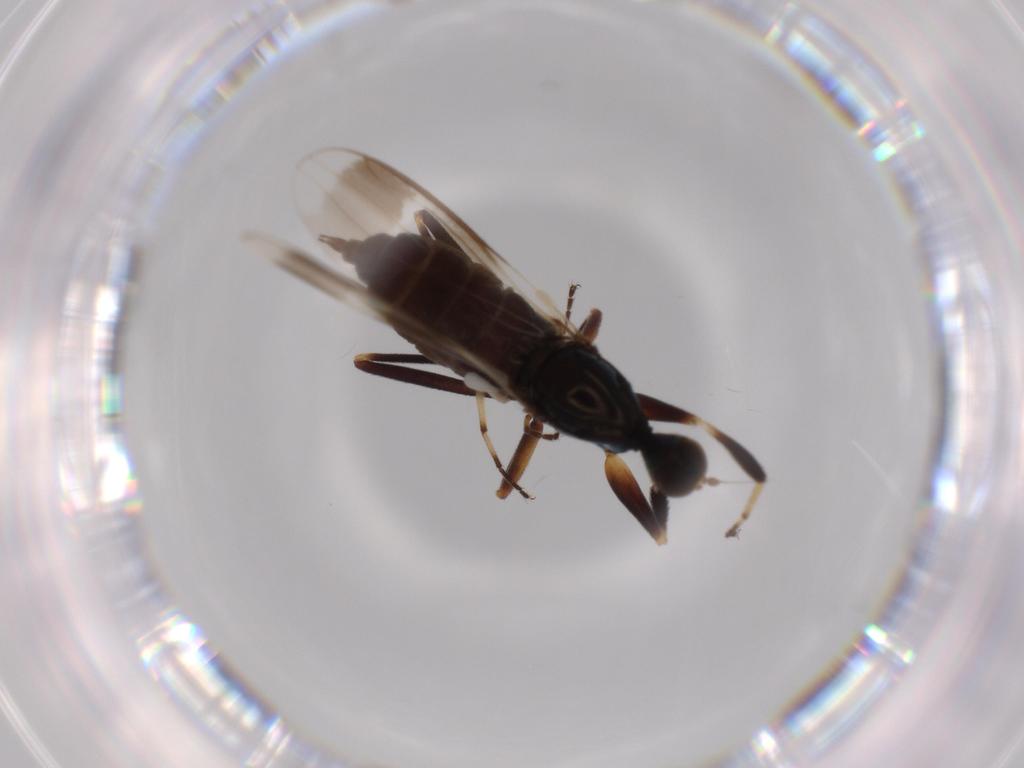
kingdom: Animalia
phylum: Arthropoda
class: Insecta
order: Diptera
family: Hybotidae
